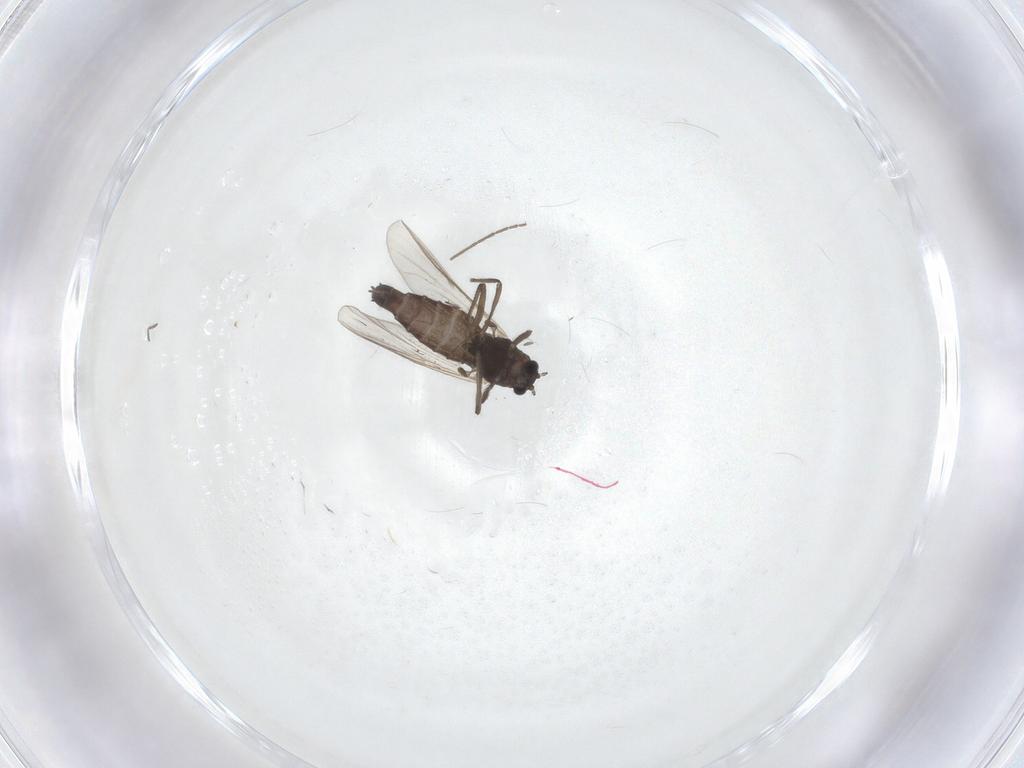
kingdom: Animalia
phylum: Arthropoda
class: Insecta
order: Diptera
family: Chironomidae
